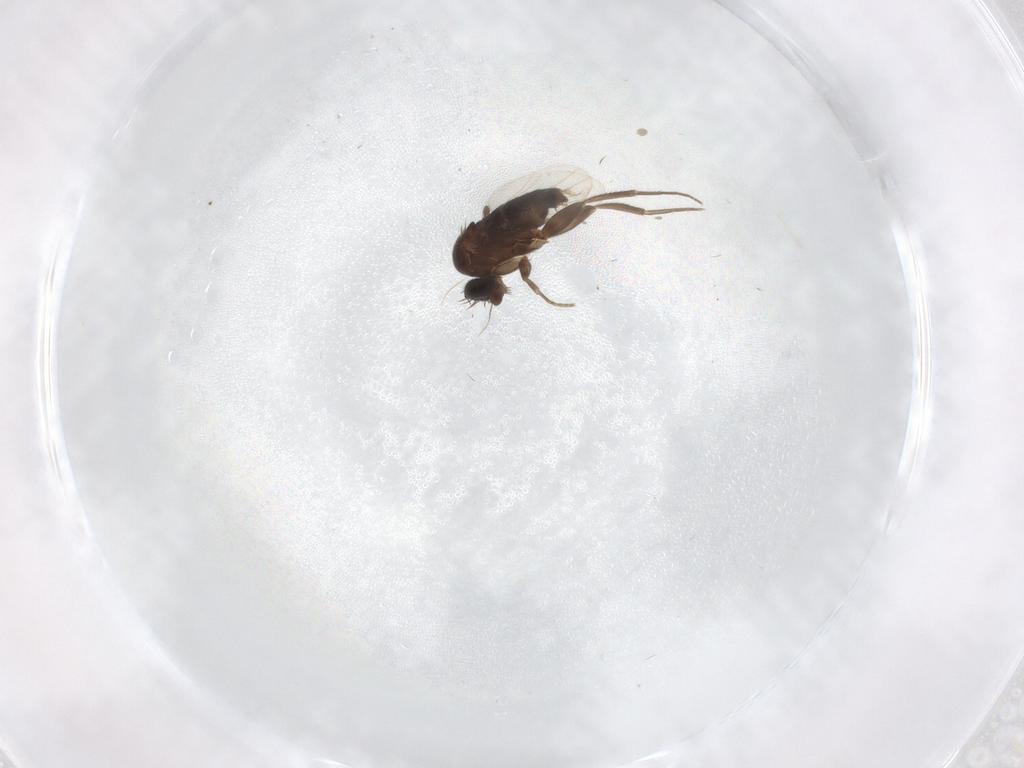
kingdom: Animalia
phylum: Arthropoda
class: Insecta
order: Diptera
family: Phoridae
